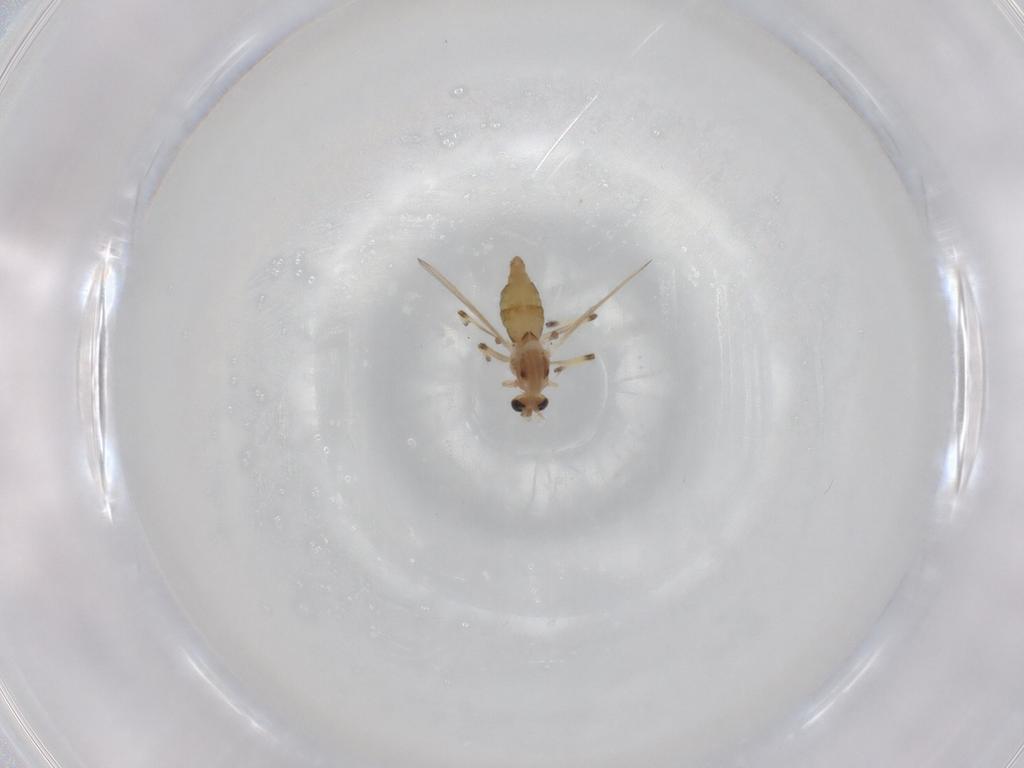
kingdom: Animalia
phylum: Arthropoda
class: Insecta
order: Diptera
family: Chironomidae
